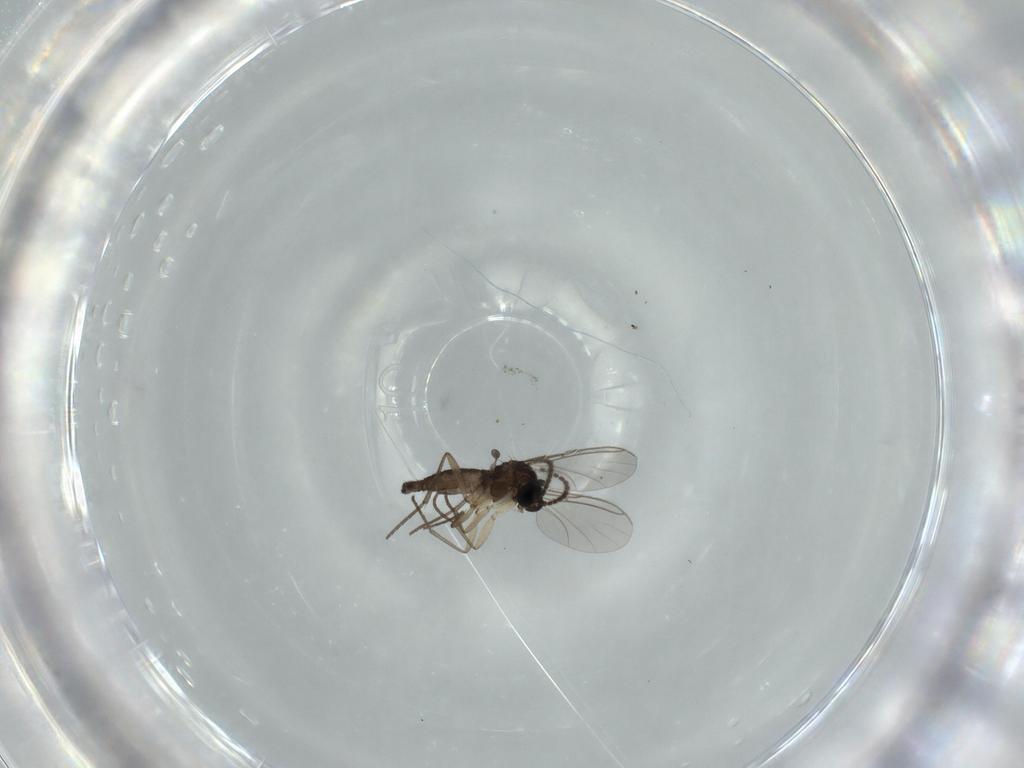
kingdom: Animalia
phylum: Arthropoda
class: Insecta
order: Diptera
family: Sciaridae
